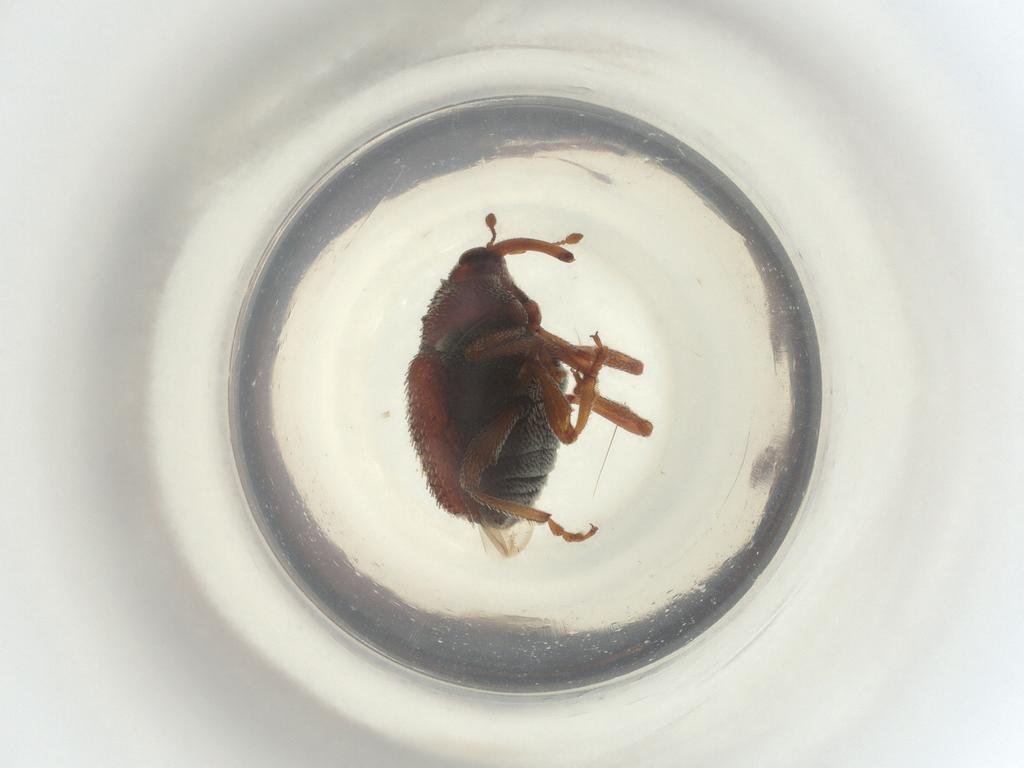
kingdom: Animalia
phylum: Arthropoda
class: Insecta
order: Coleoptera
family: Curculionidae
